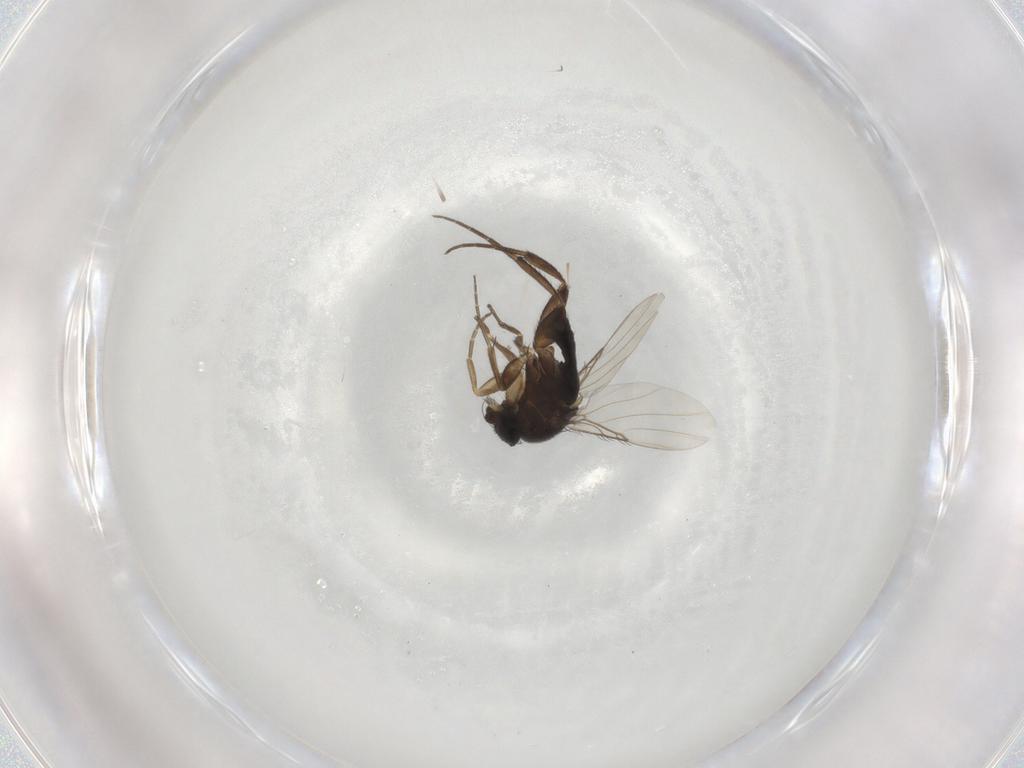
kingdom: Animalia
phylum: Arthropoda
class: Insecta
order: Diptera
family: Phoridae
